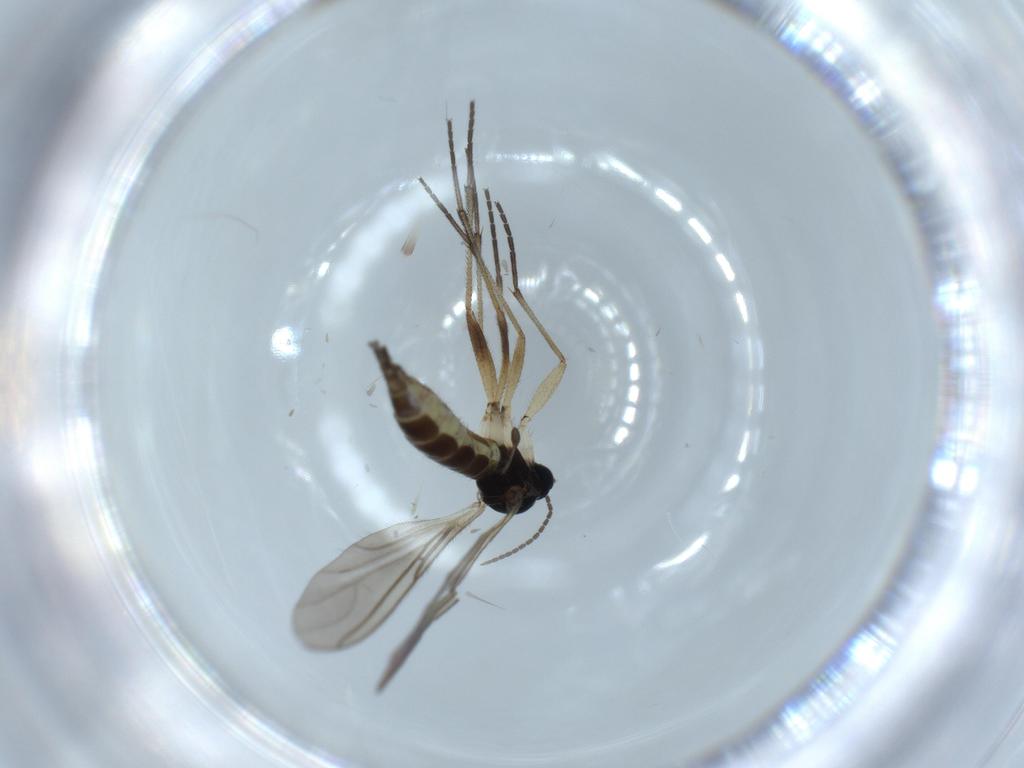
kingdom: Animalia
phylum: Arthropoda
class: Insecta
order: Diptera
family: Sciaridae
